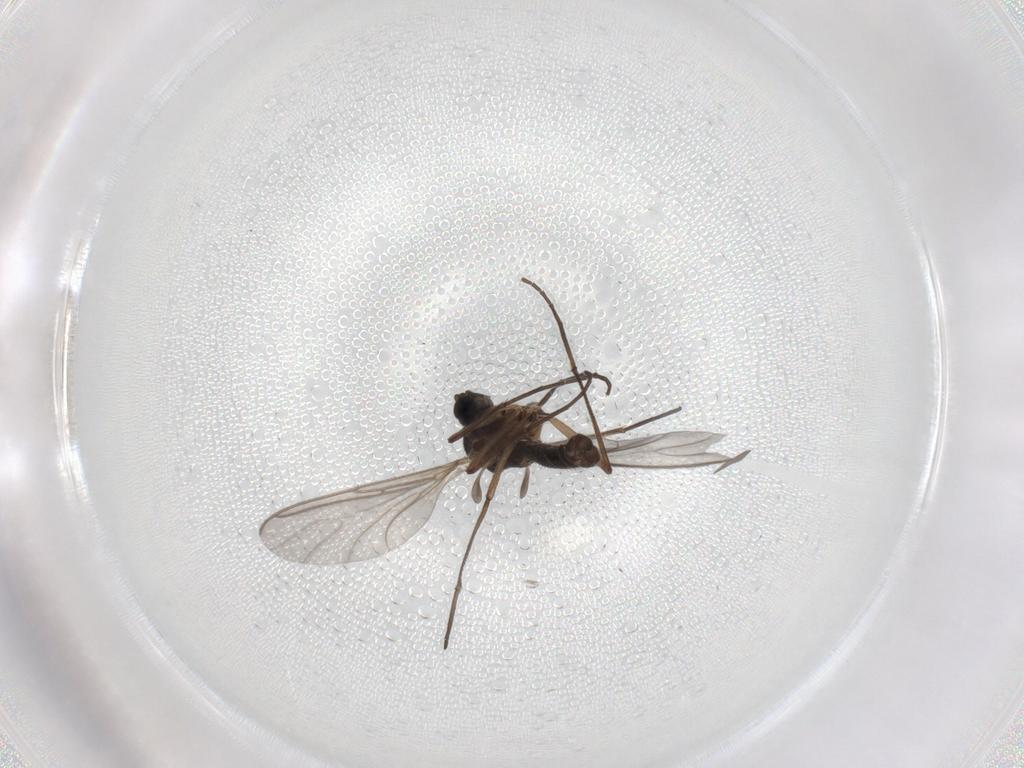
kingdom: Animalia
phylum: Arthropoda
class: Insecta
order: Diptera
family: Sciaridae
